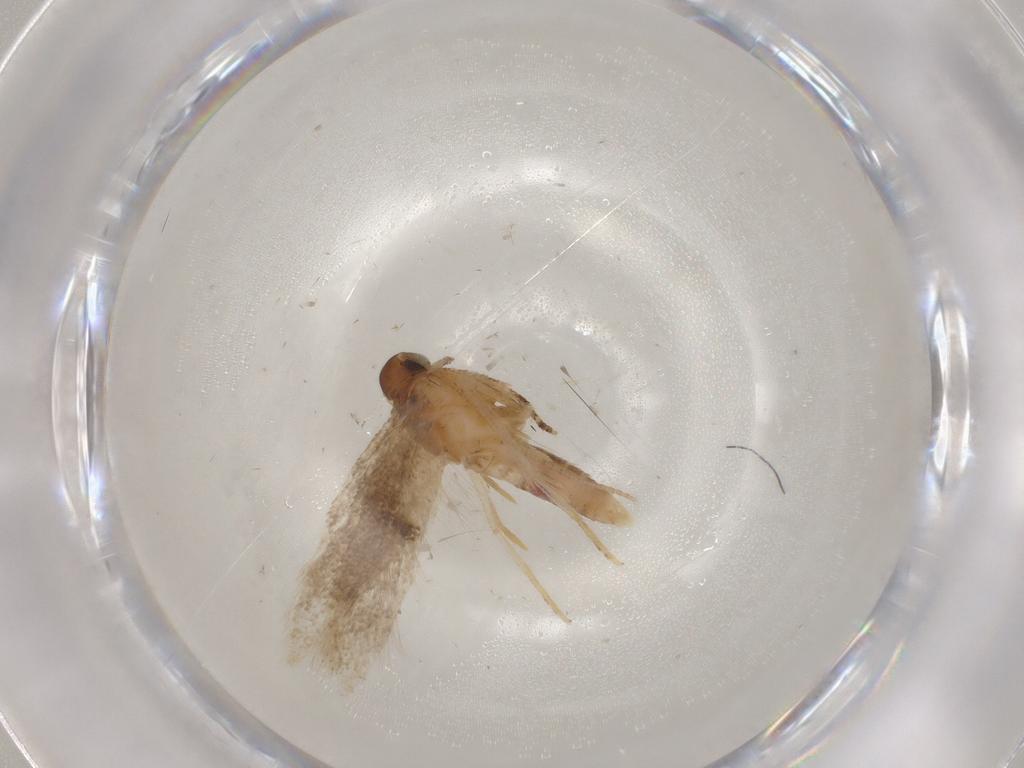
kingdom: Animalia
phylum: Arthropoda
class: Insecta
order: Lepidoptera
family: Gelechiidae
